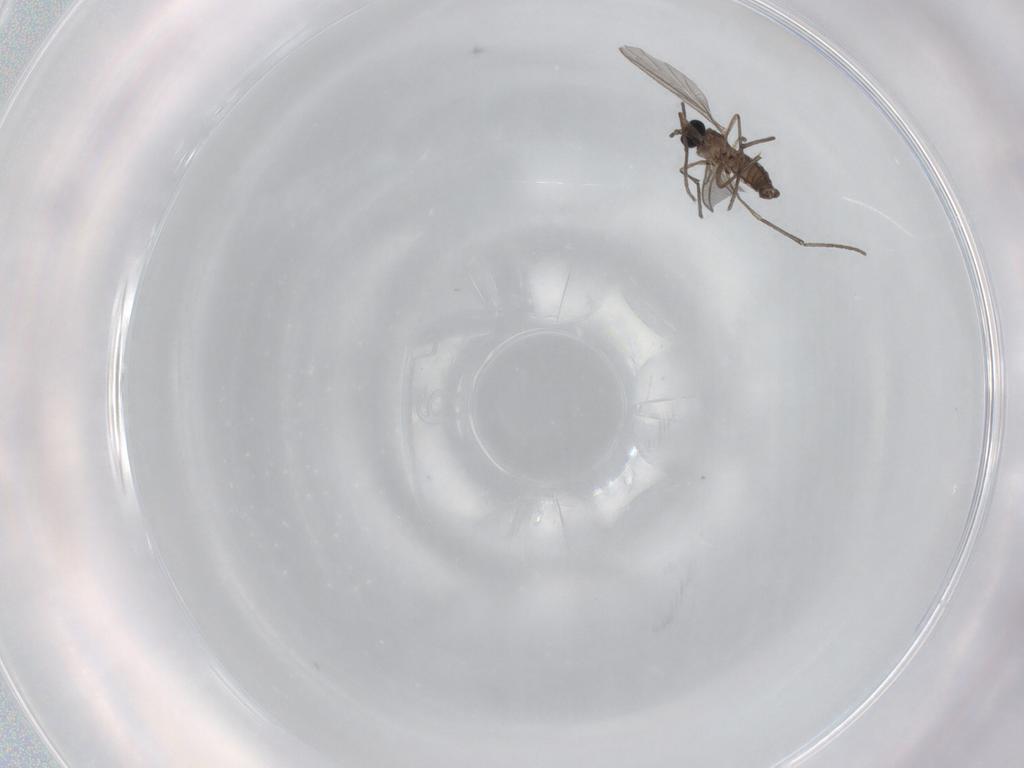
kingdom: Animalia
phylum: Arthropoda
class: Insecta
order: Diptera
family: Sciaridae
